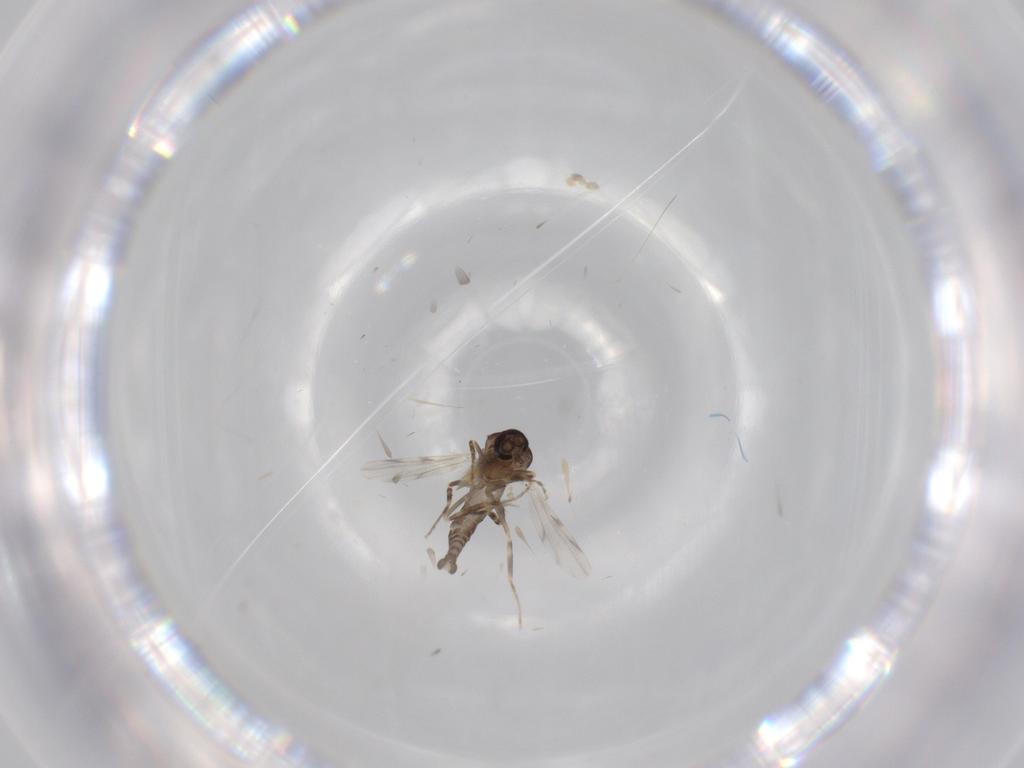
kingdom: Animalia
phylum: Arthropoda
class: Insecta
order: Diptera
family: Ceratopogonidae
